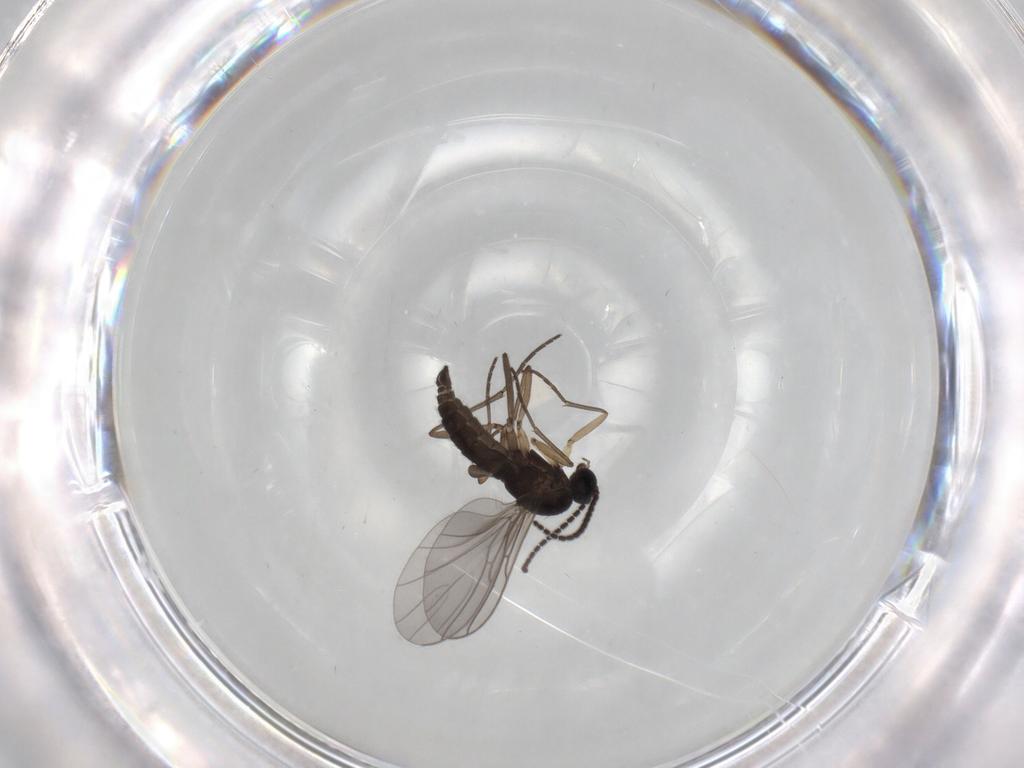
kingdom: Animalia
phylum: Arthropoda
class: Insecta
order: Diptera
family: Sciaridae
